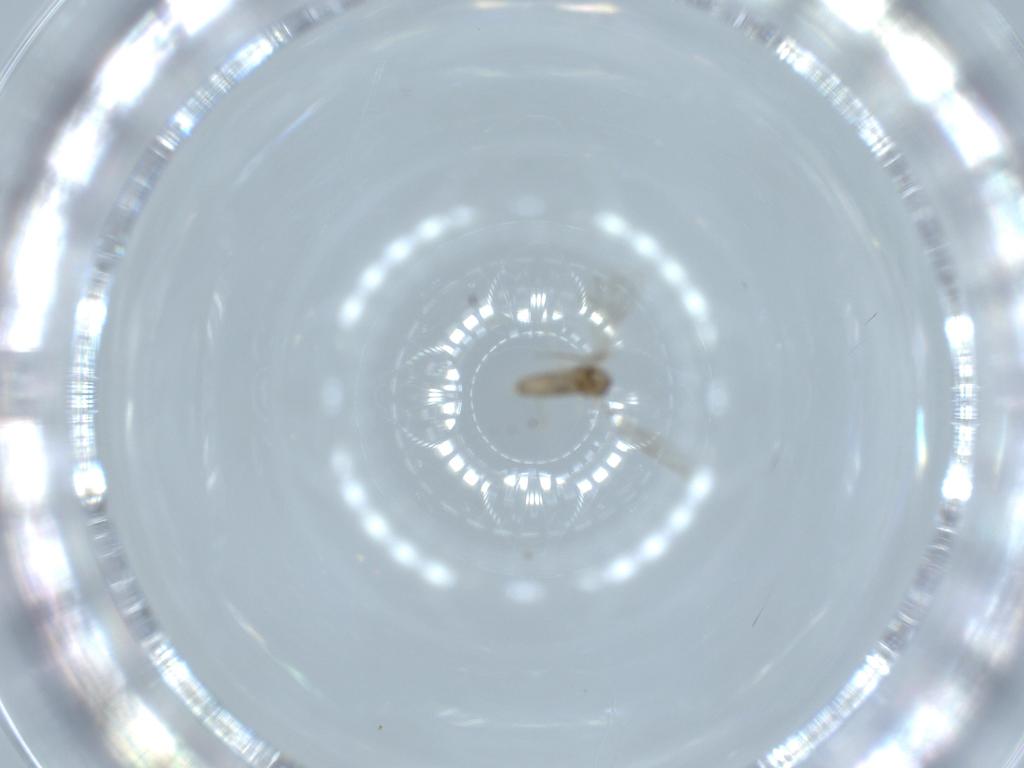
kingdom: Animalia
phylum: Arthropoda
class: Insecta
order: Diptera
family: Cecidomyiidae
